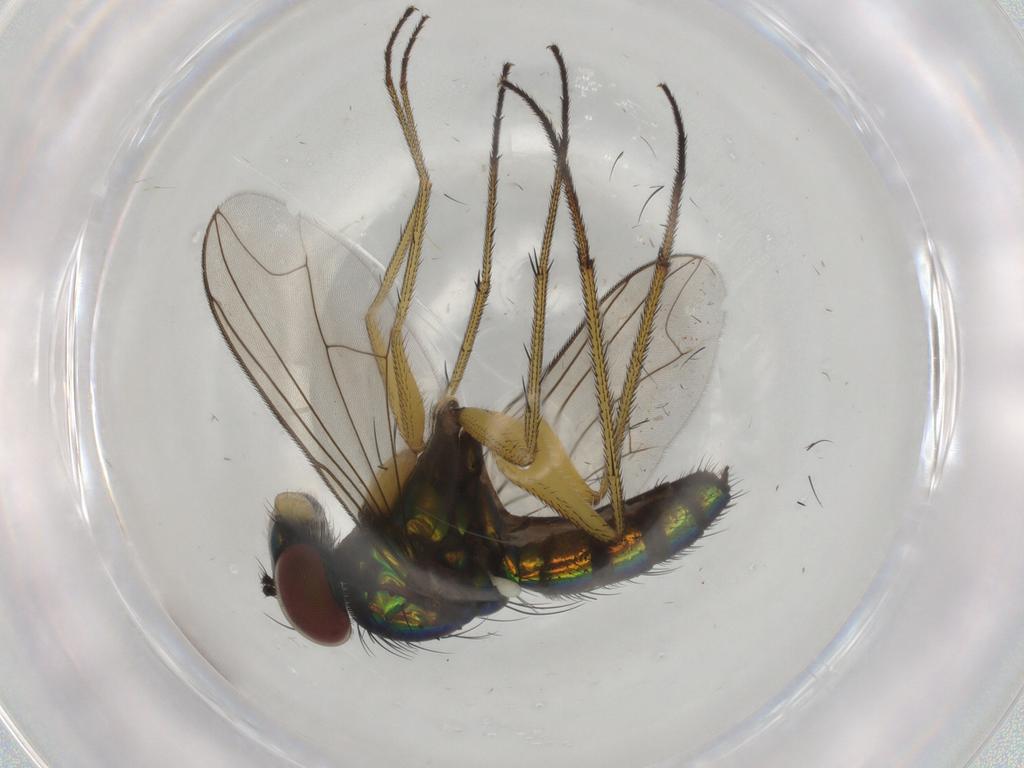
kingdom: Animalia
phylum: Arthropoda
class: Insecta
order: Diptera
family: Dolichopodidae
